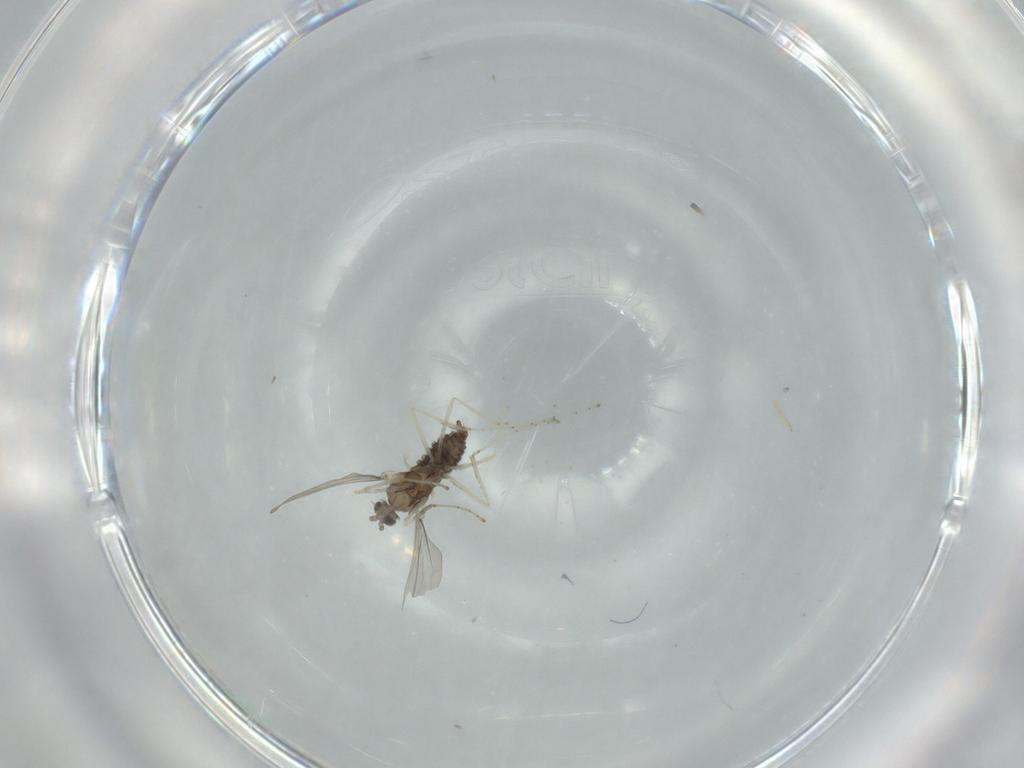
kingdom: Animalia
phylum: Arthropoda
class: Insecta
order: Diptera
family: Cecidomyiidae
